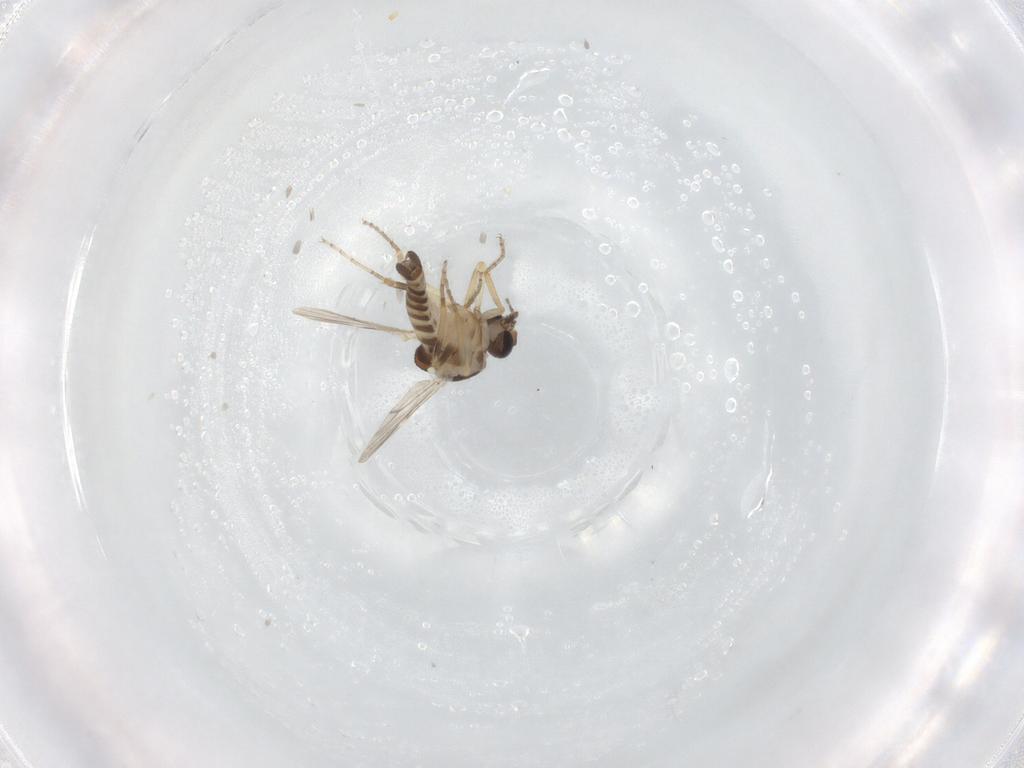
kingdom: Animalia
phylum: Arthropoda
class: Insecta
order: Diptera
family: Ceratopogonidae
